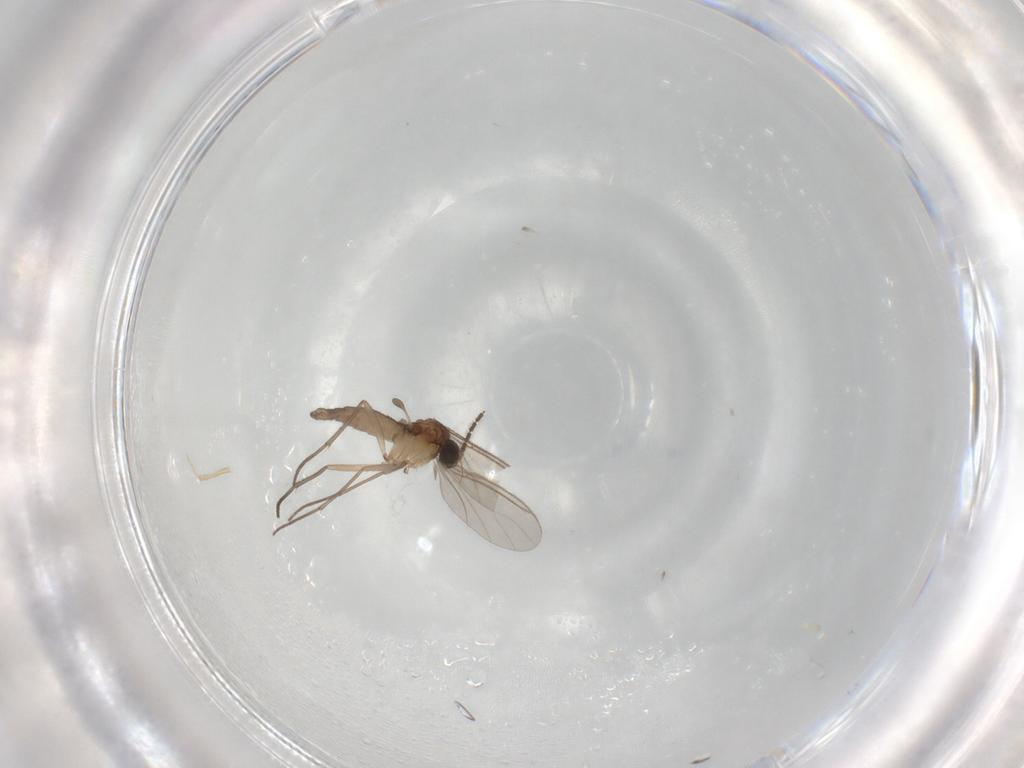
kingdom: Animalia
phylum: Arthropoda
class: Insecta
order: Diptera
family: Sciaridae
